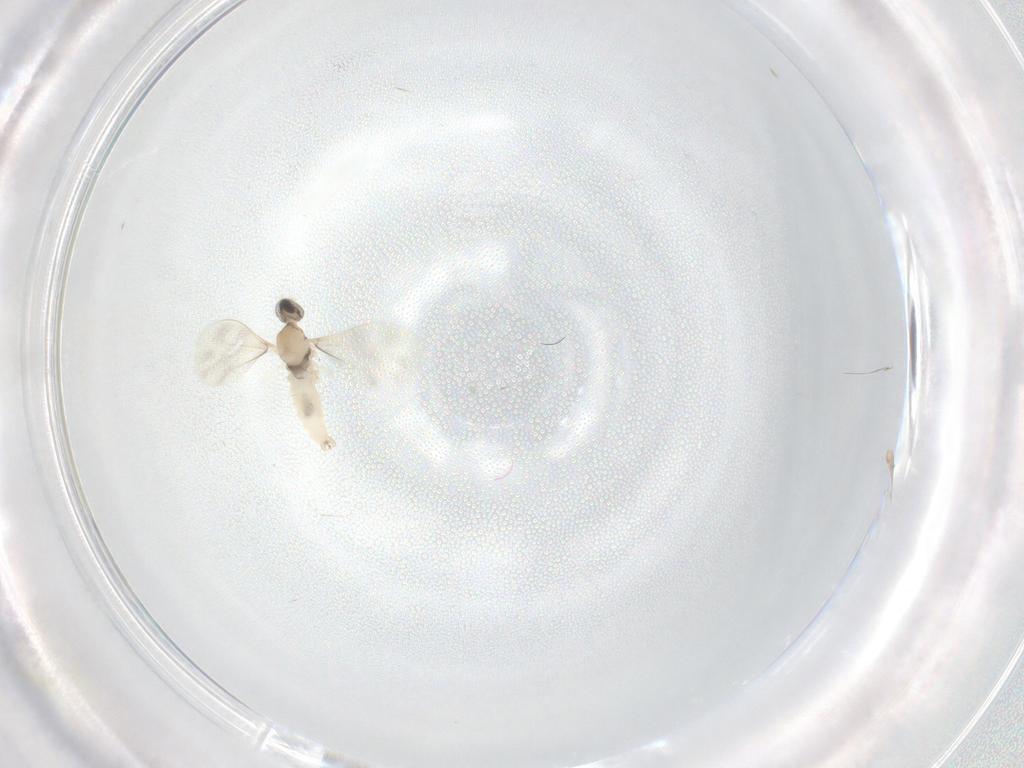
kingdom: Animalia
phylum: Arthropoda
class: Insecta
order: Diptera
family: Cecidomyiidae
